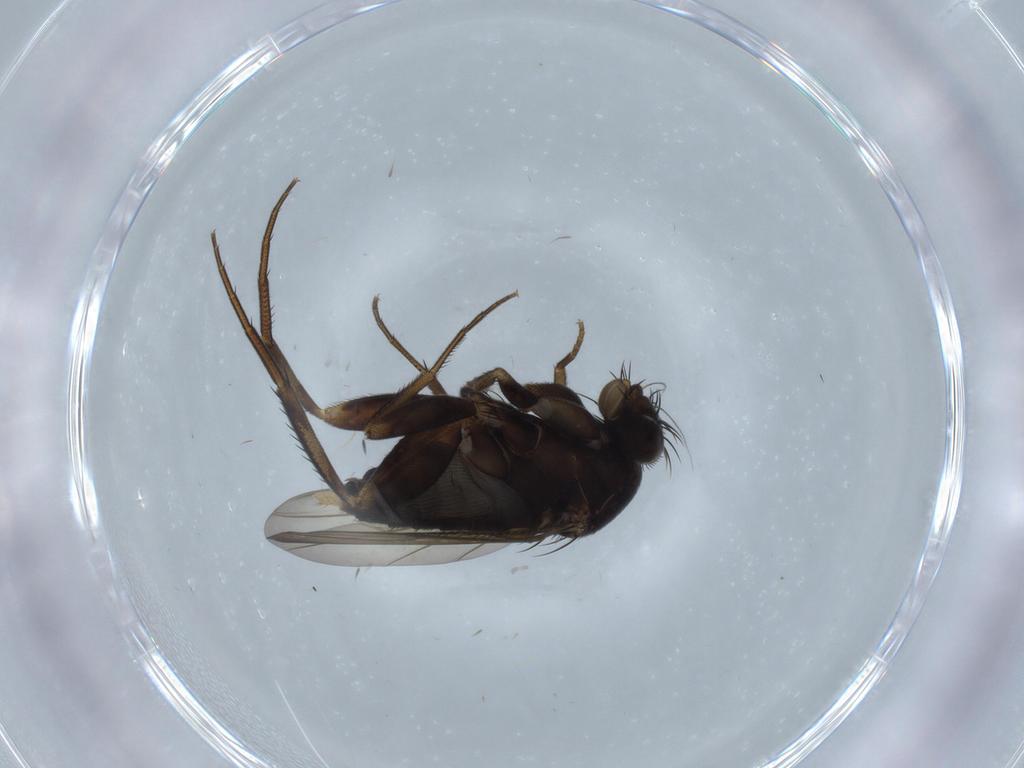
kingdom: Animalia
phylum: Arthropoda
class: Insecta
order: Diptera
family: Phoridae
